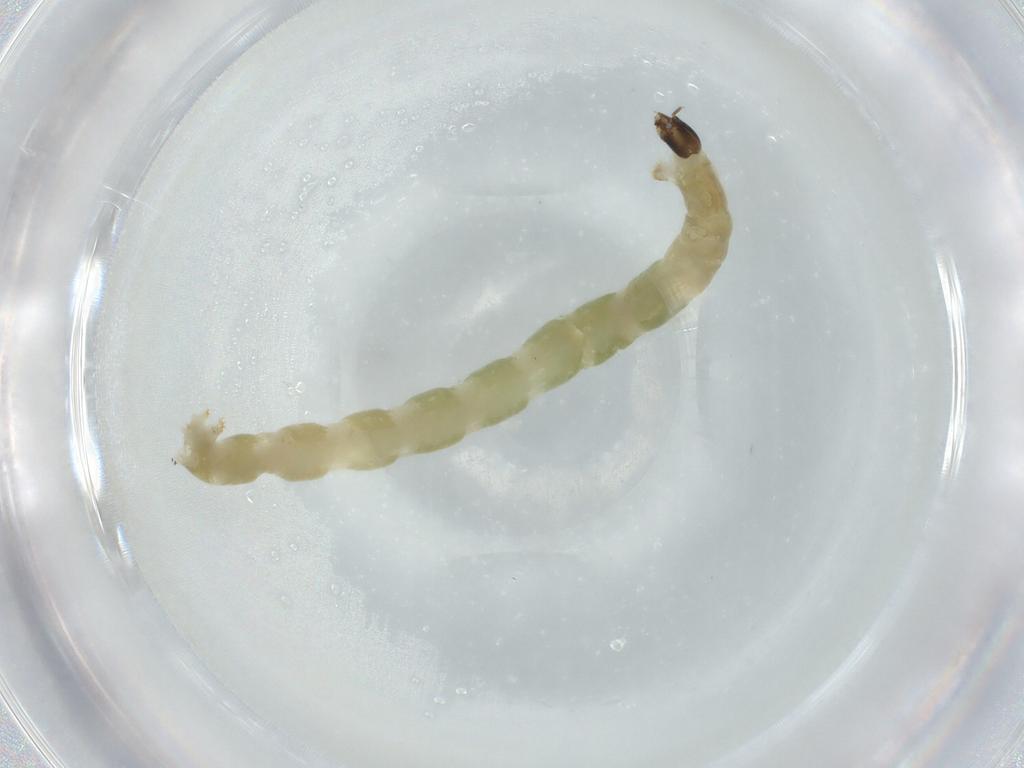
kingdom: Animalia
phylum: Arthropoda
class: Insecta
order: Diptera
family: Chironomidae
